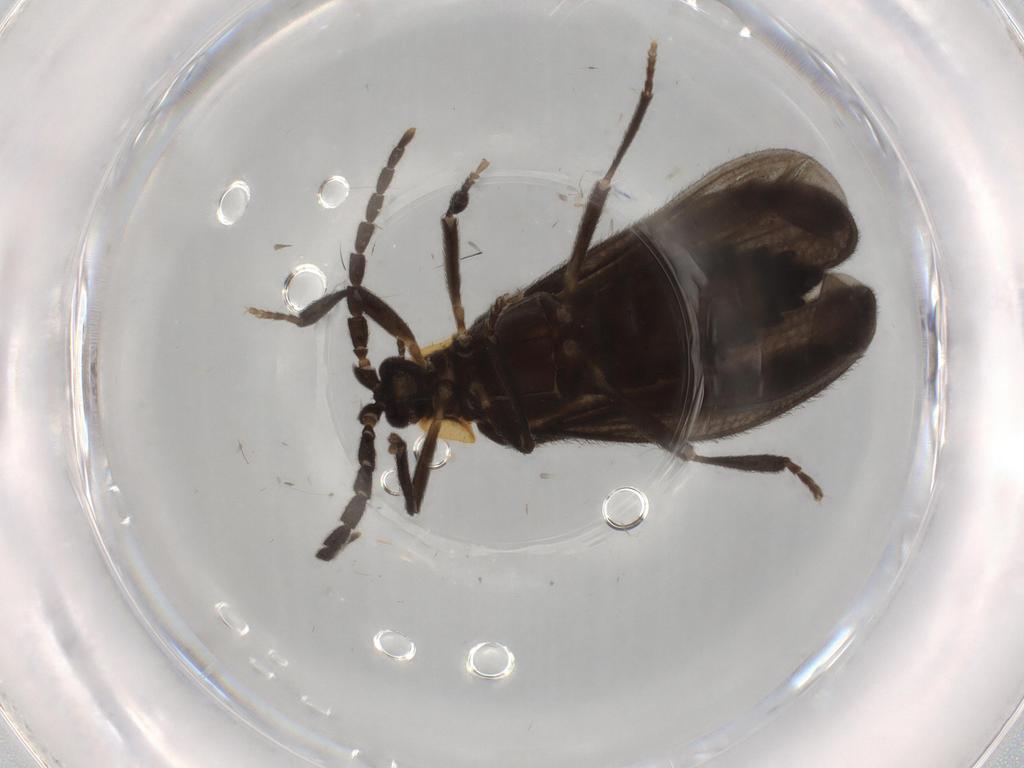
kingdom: Animalia
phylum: Arthropoda
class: Insecta
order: Coleoptera
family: Lycidae
